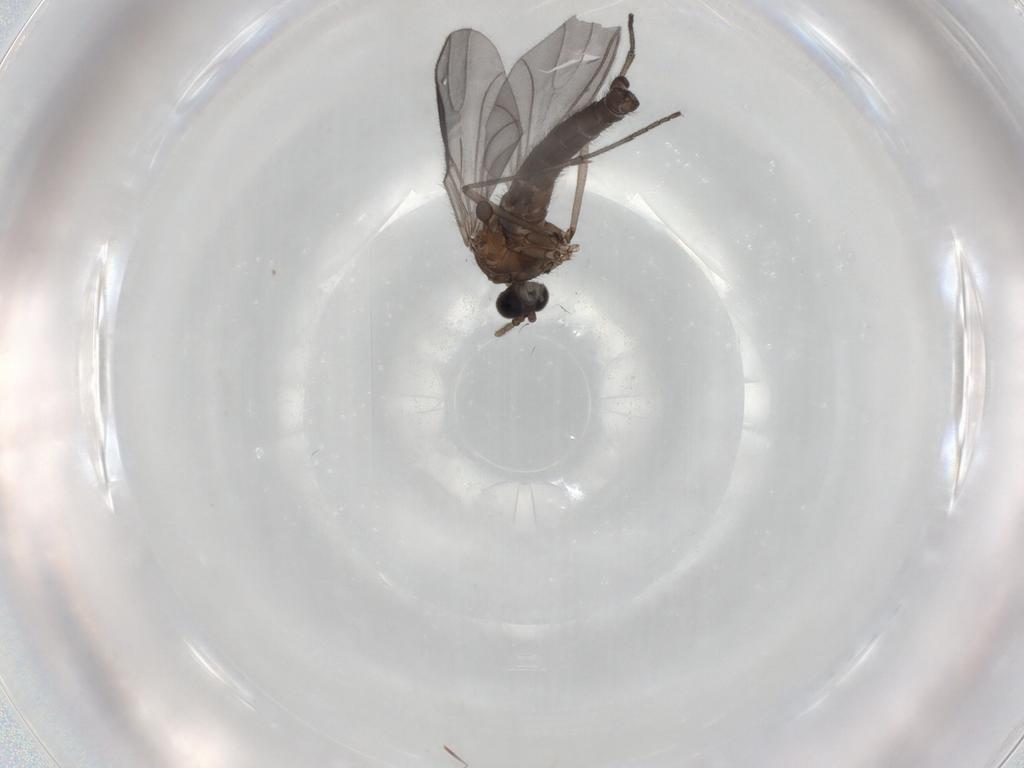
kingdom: Animalia
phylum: Arthropoda
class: Insecta
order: Diptera
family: Sciaridae
